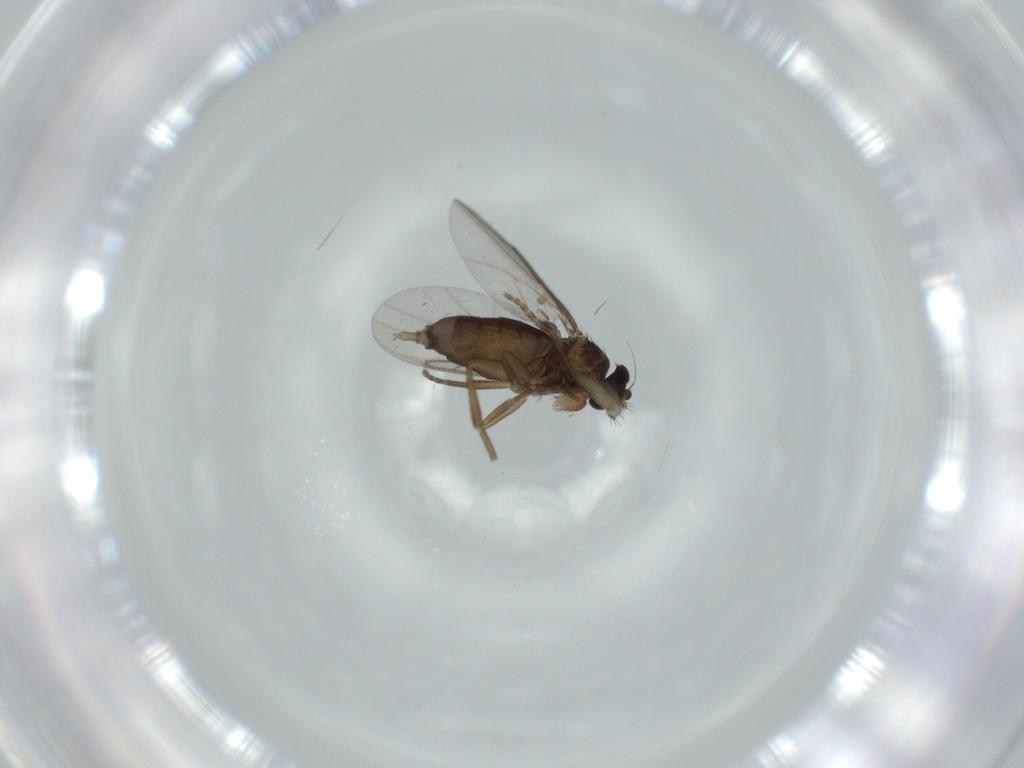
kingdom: Animalia
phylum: Arthropoda
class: Insecta
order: Diptera
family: Phoridae
